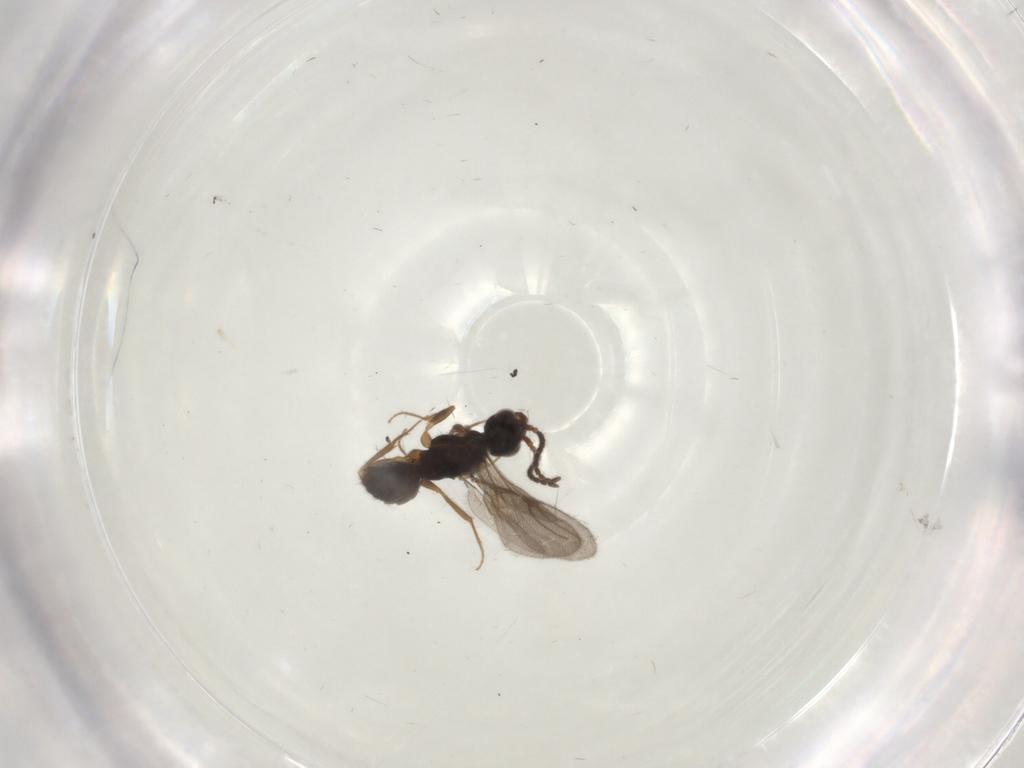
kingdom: Animalia
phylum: Arthropoda
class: Insecta
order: Hymenoptera
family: Bethylidae
